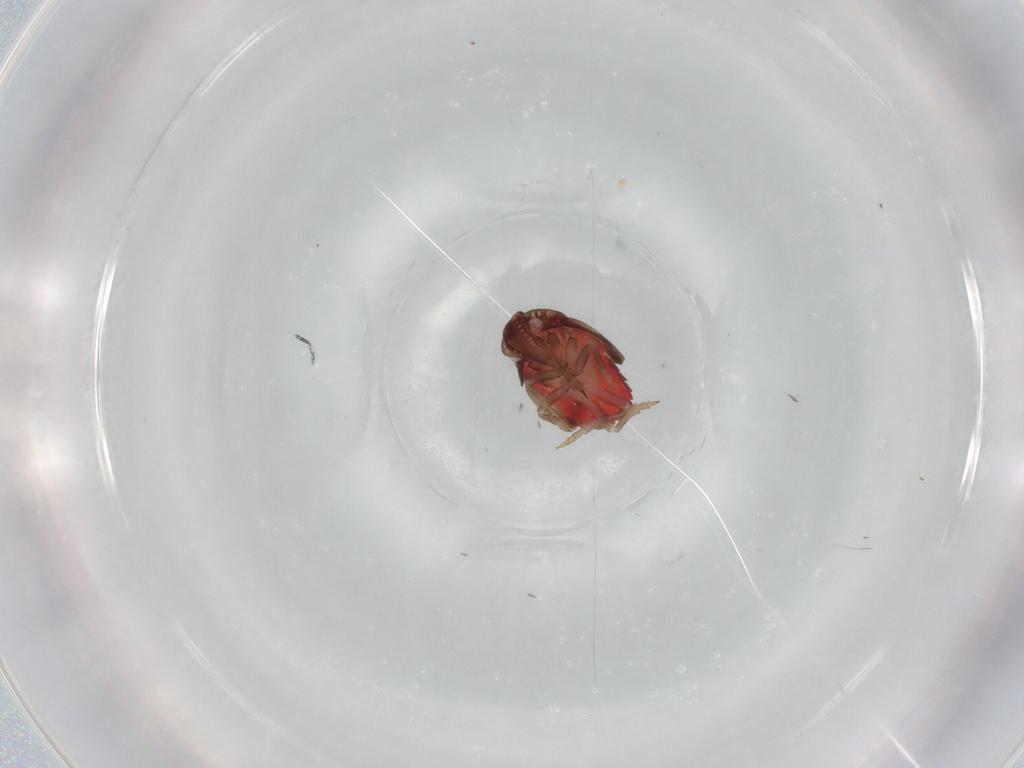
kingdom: Animalia
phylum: Arthropoda
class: Insecta
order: Hemiptera
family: Derbidae
